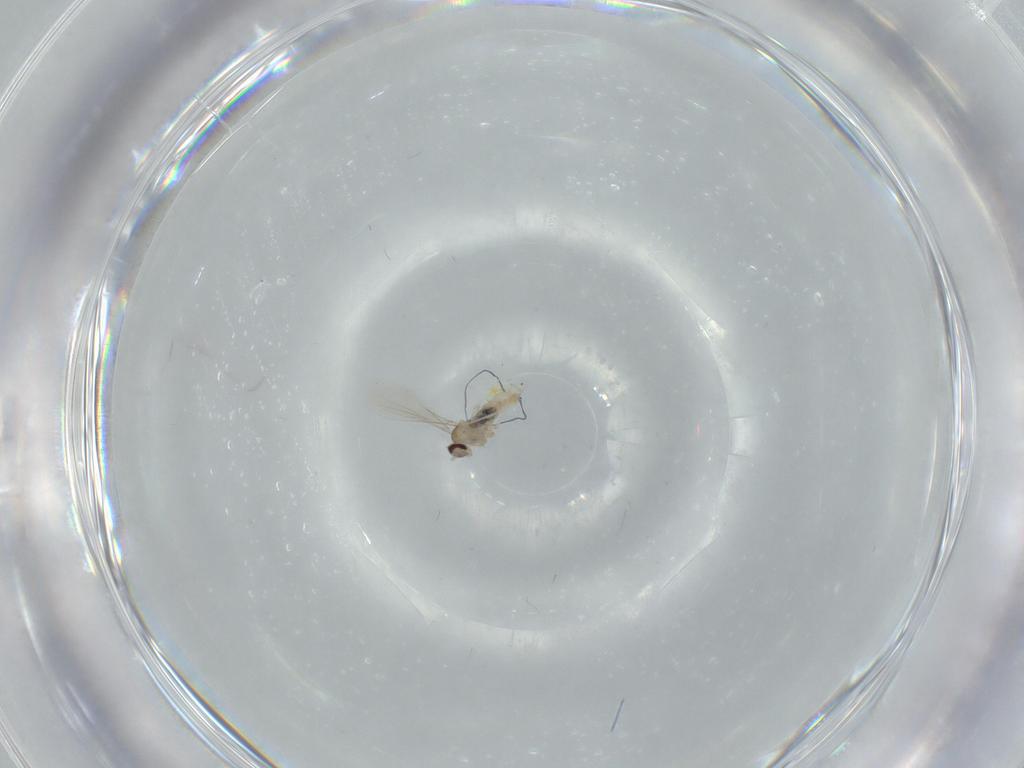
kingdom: Animalia
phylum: Arthropoda
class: Insecta
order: Diptera
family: Cecidomyiidae
